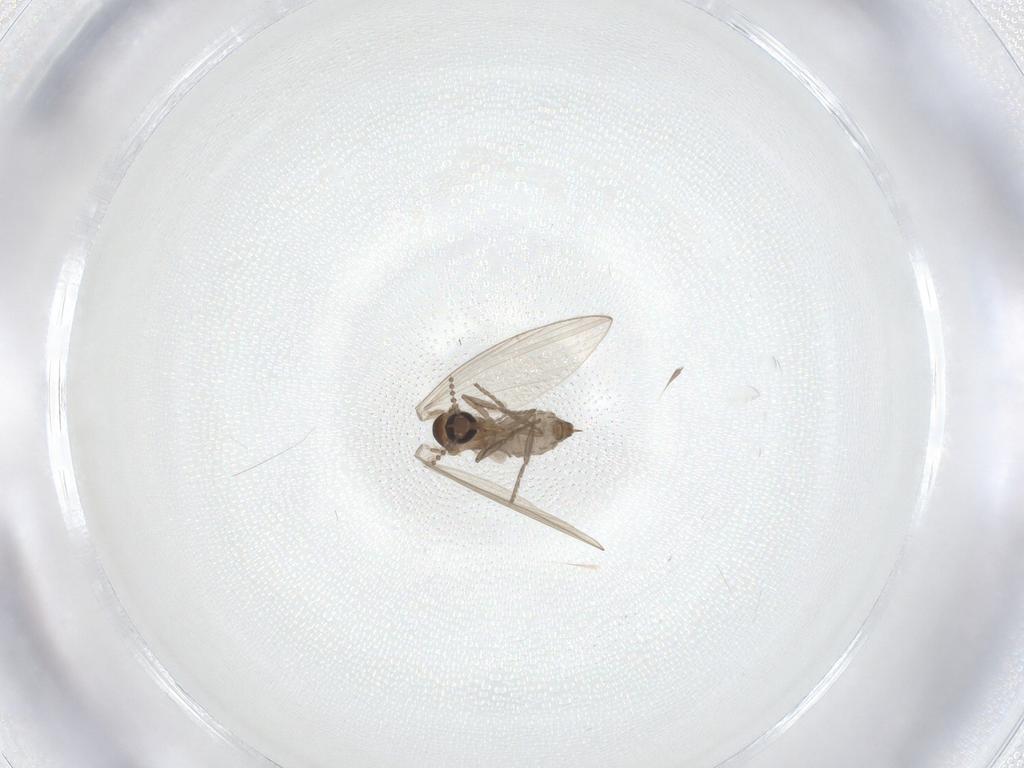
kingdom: Animalia
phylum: Arthropoda
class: Insecta
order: Diptera
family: Psychodidae
